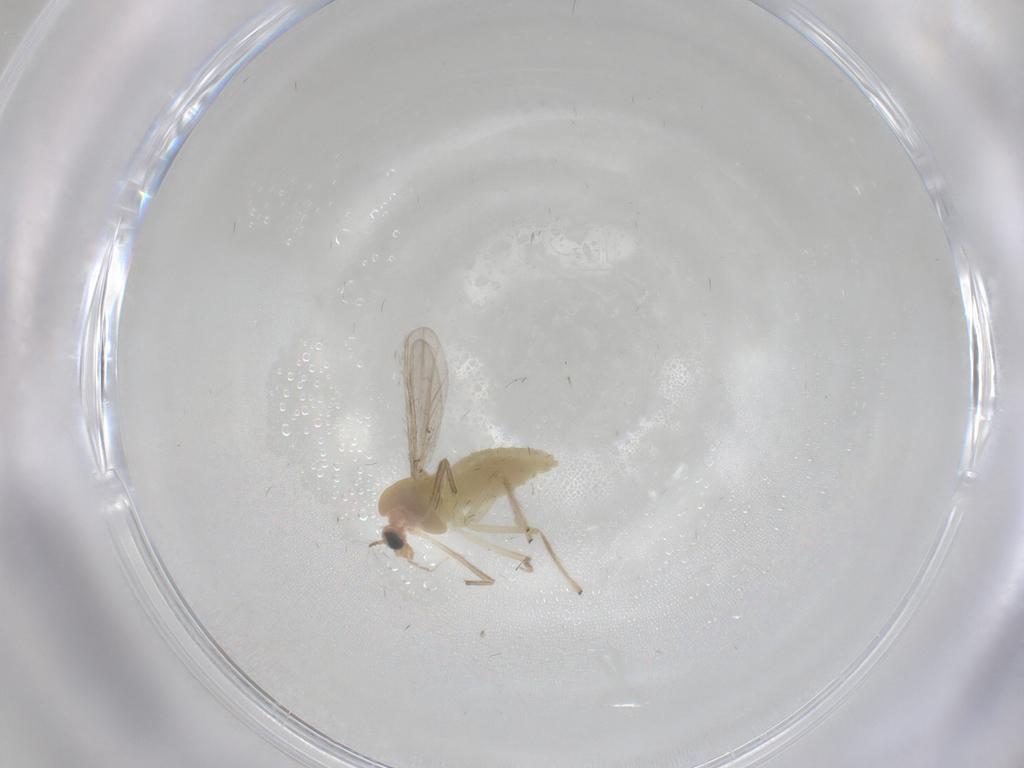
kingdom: Animalia
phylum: Arthropoda
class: Insecta
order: Diptera
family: Chironomidae
